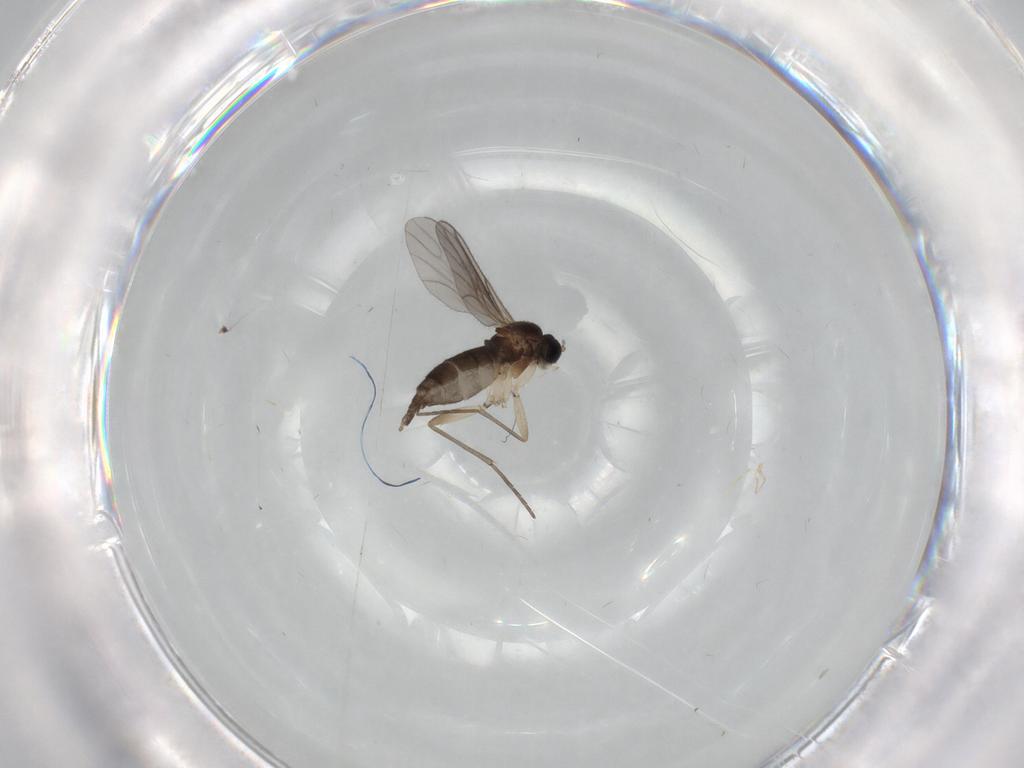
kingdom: Animalia
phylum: Arthropoda
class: Insecta
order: Diptera
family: Sciaridae
